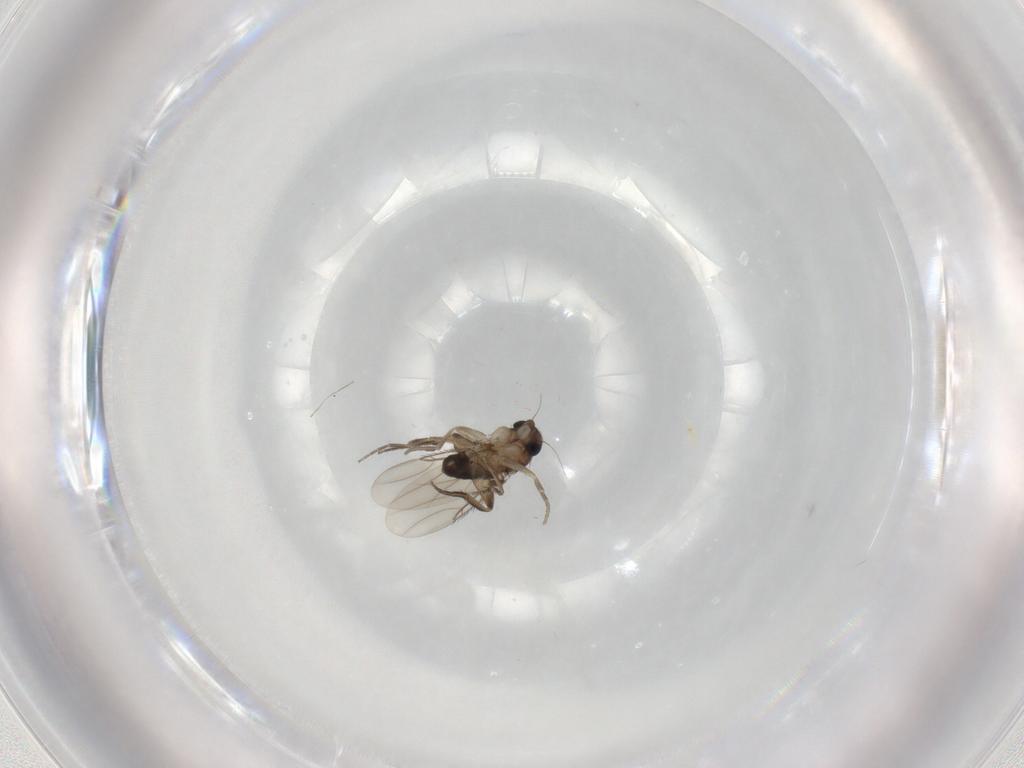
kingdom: Animalia
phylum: Arthropoda
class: Insecta
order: Diptera
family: Phoridae
